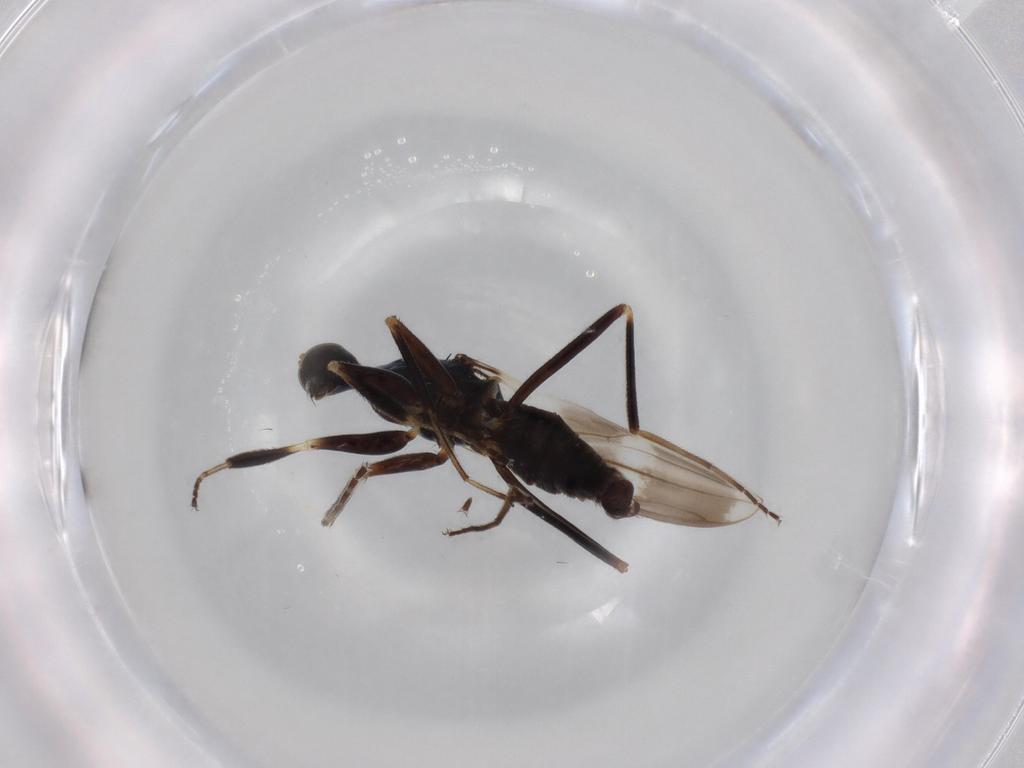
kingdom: Animalia
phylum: Arthropoda
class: Insecta
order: Diptera
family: Hybotidae
